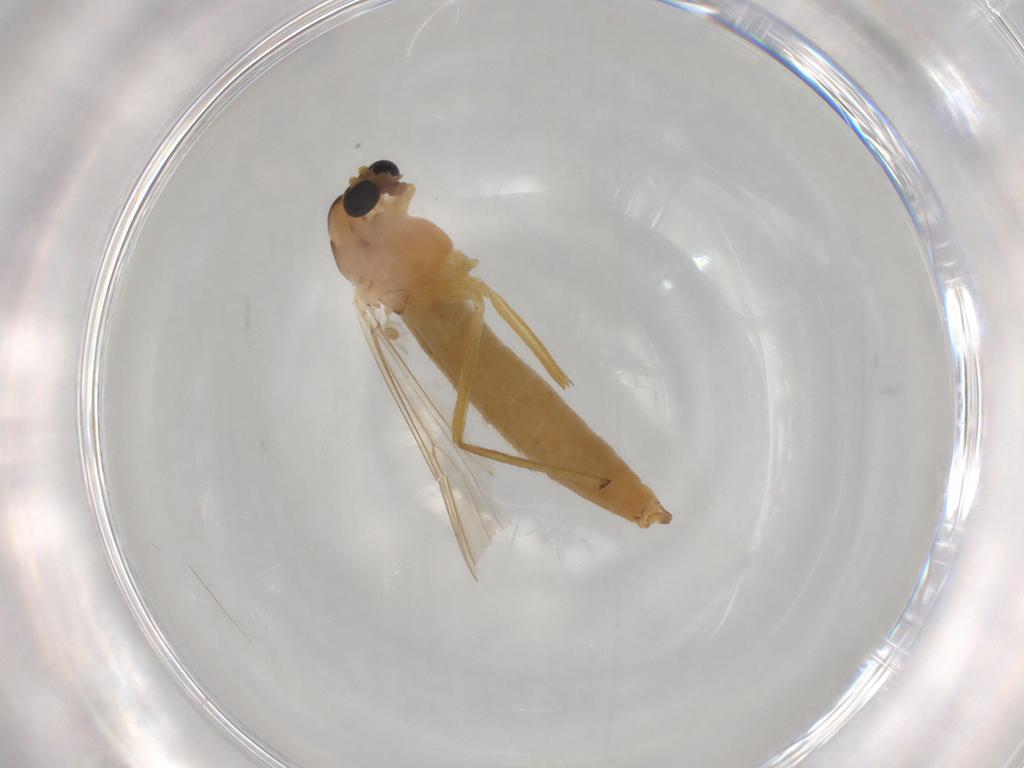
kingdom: Animalia
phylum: Arthropoda
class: Insecta
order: Diptera
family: Chironomidae
